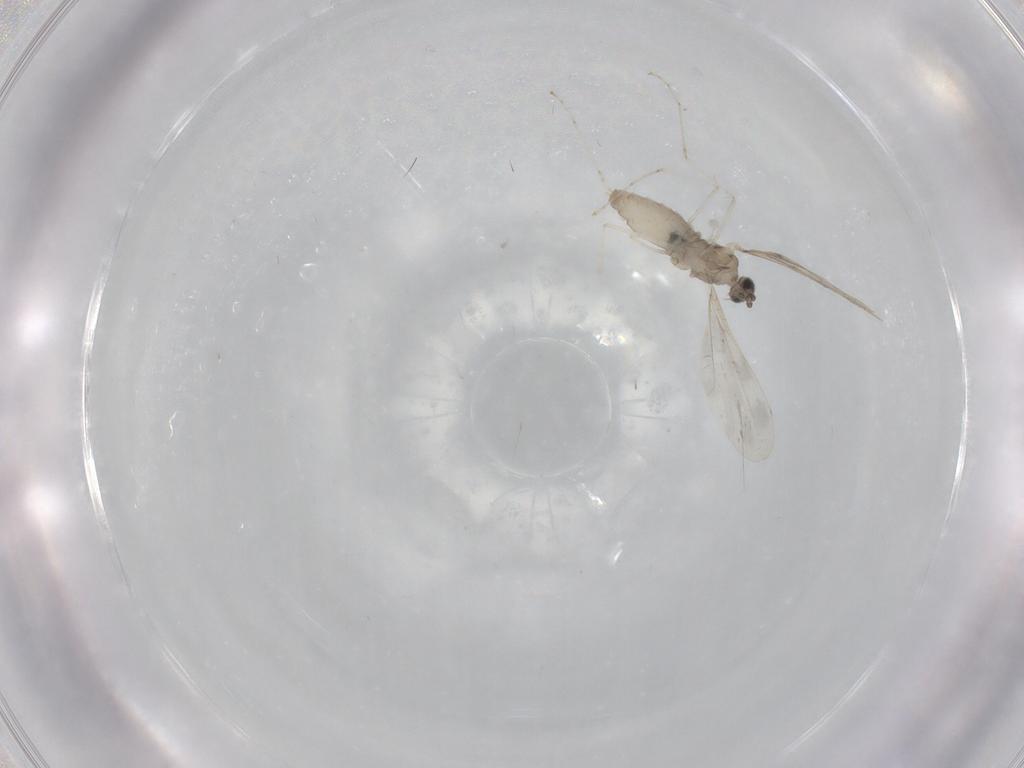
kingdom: Animalia
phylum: Arthropoda
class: Insecta
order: Diptera
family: Cecidomyiidae
